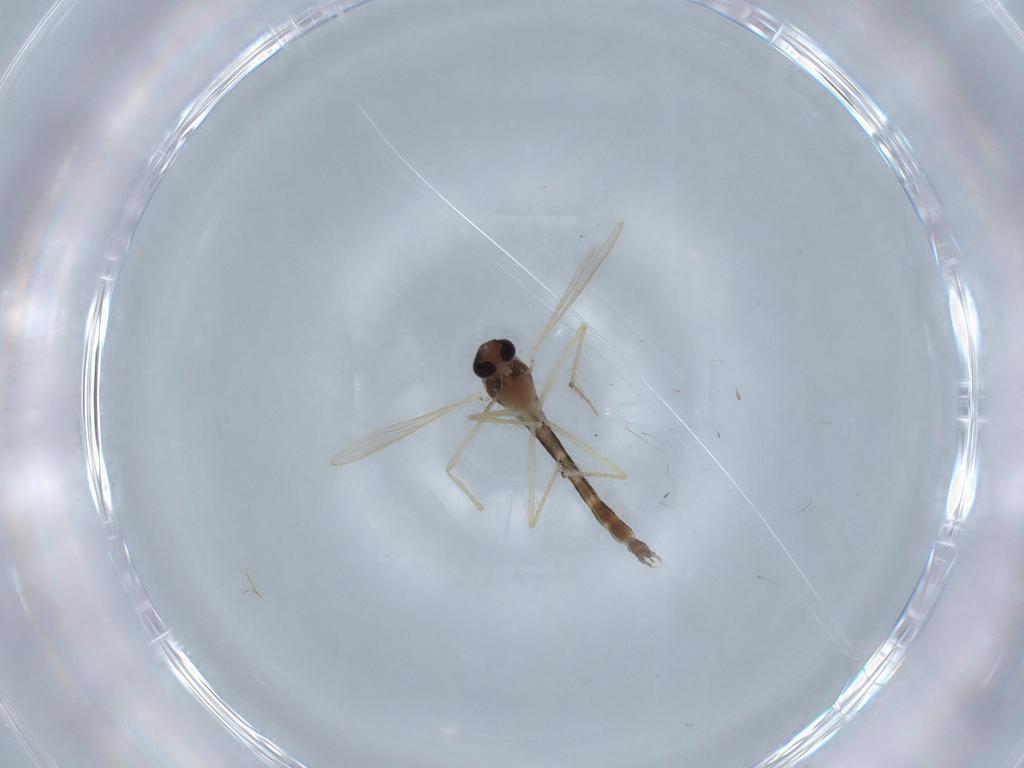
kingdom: Animalia
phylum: Arthropoda
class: Insecta
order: Diptera
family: Chironomidae
